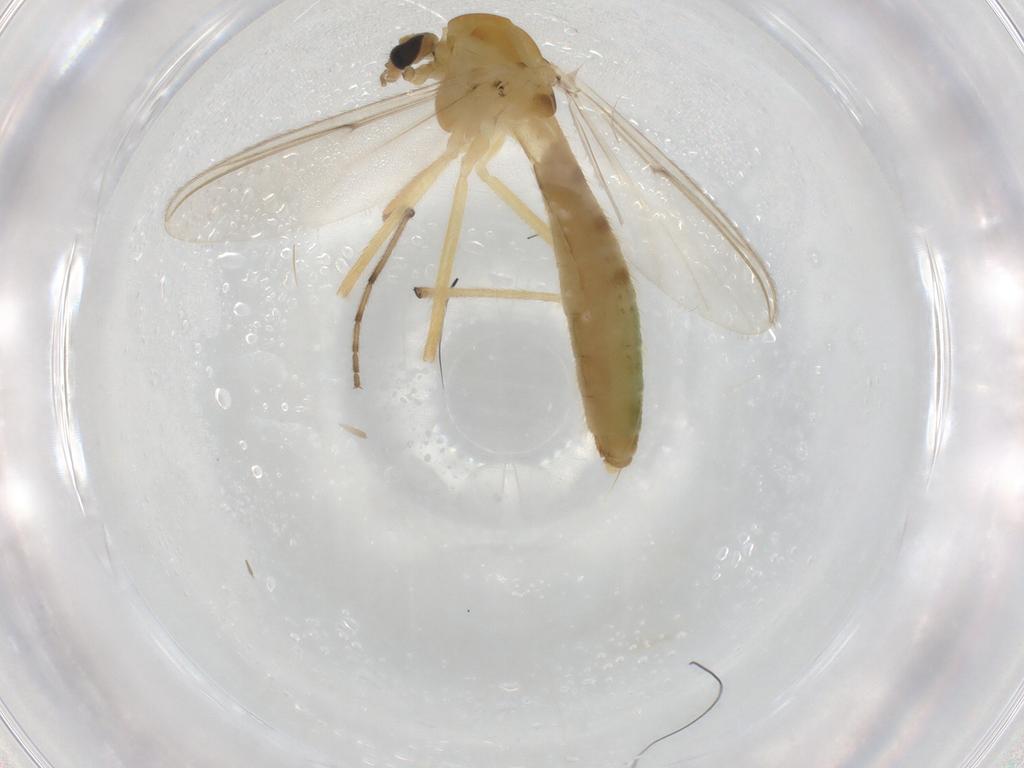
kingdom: Animalia
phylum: Arthropoda
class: Insecta
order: Diptera
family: Chironomidae
